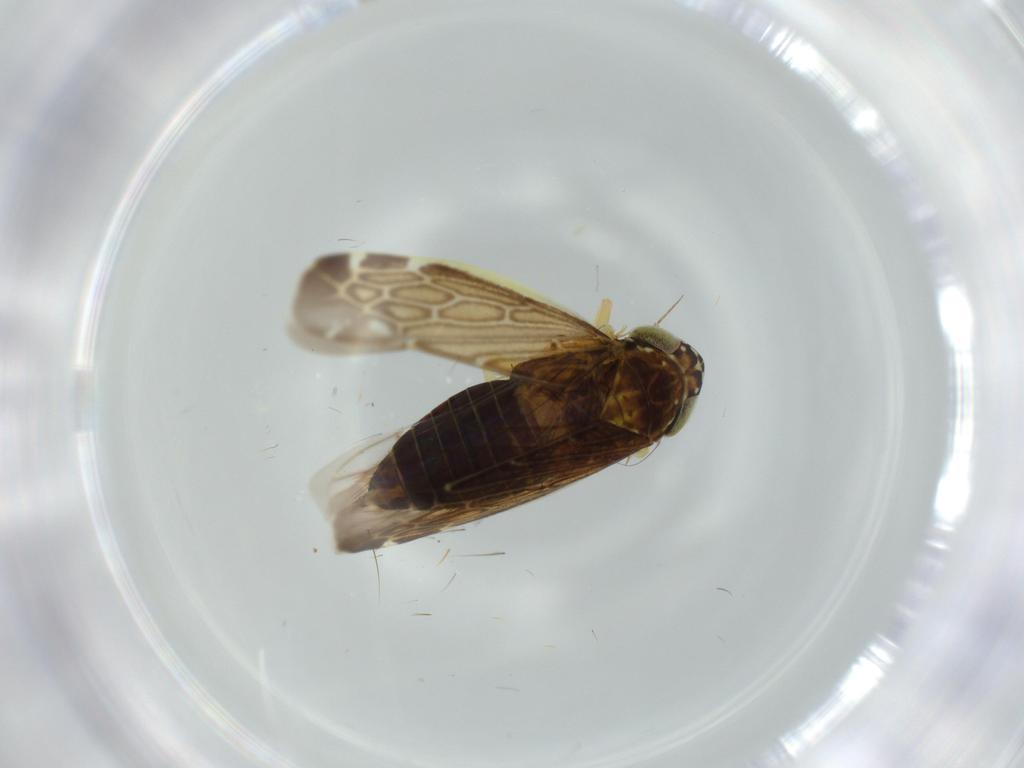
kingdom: Animalia
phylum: Arthropoda
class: Insecta
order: Hemiptera
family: Cicadellidae
